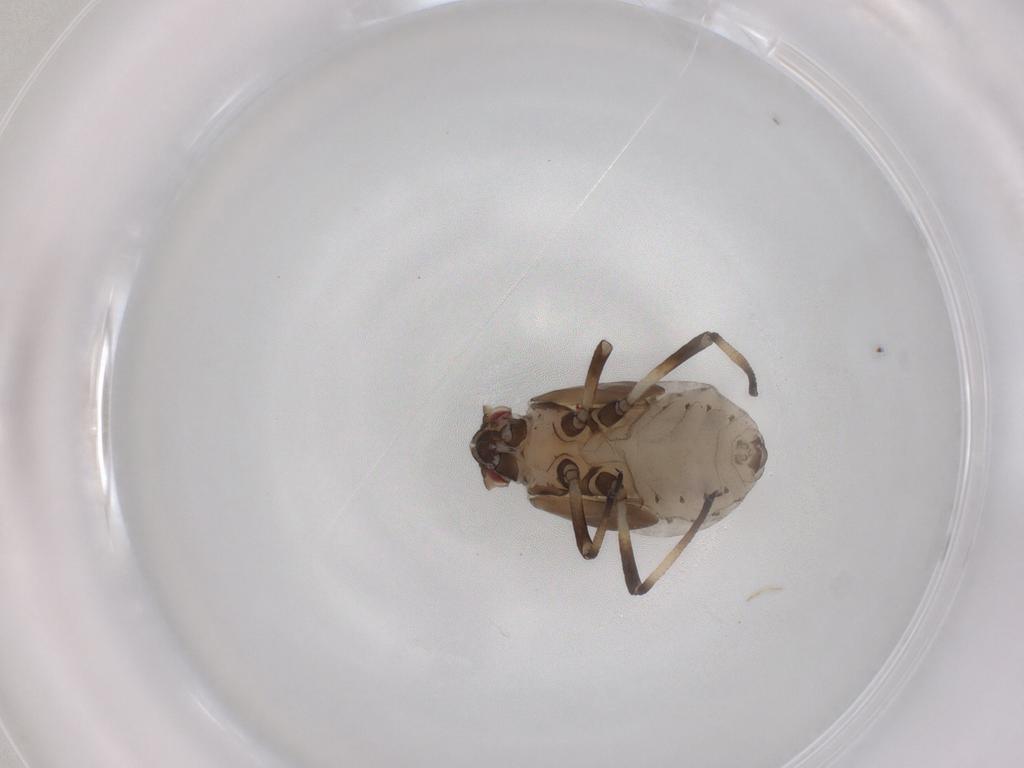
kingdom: Animalia
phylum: Arthropoda
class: Insecta
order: Hemiptera
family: Aphididae
